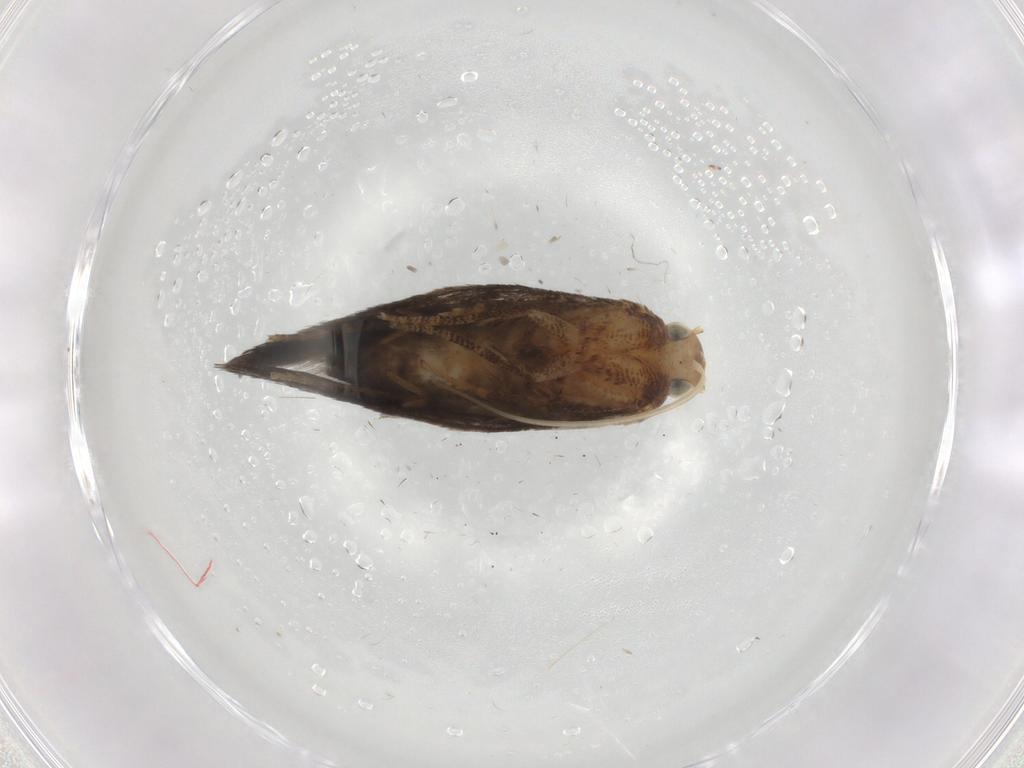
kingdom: Animalia
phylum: Arthropoda
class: Insecta
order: Lepidoptera
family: Gelechiidae
